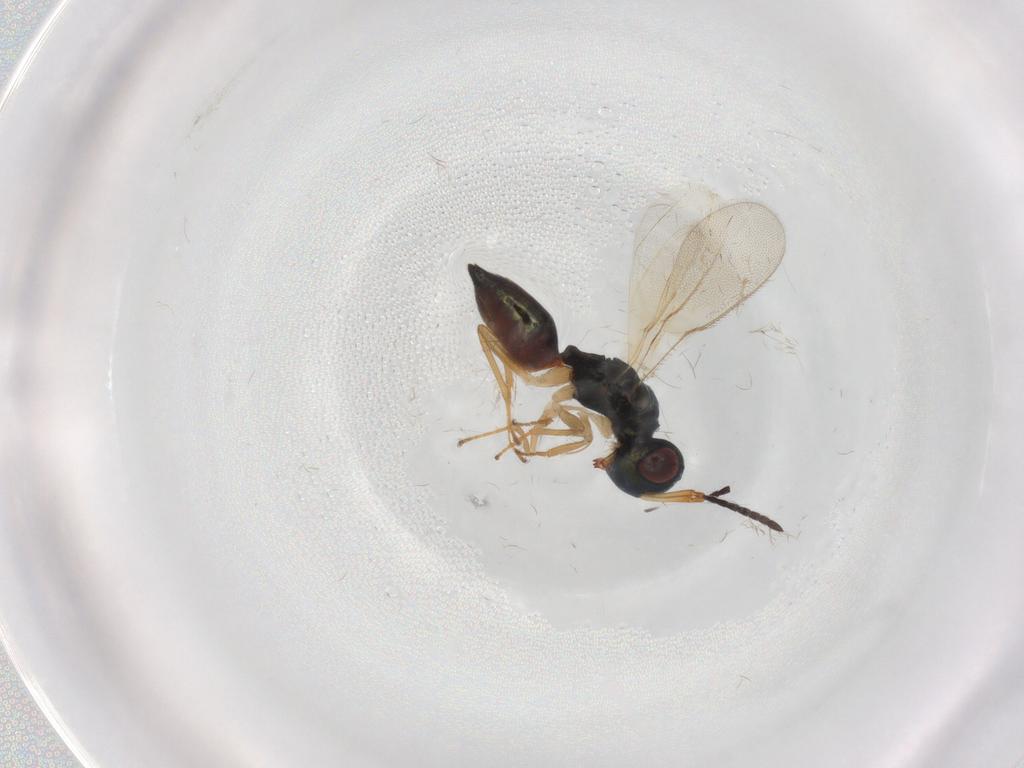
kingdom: Animalia
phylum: Arthropoda
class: Insecta
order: Hymenoptera
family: Pteromalidae
